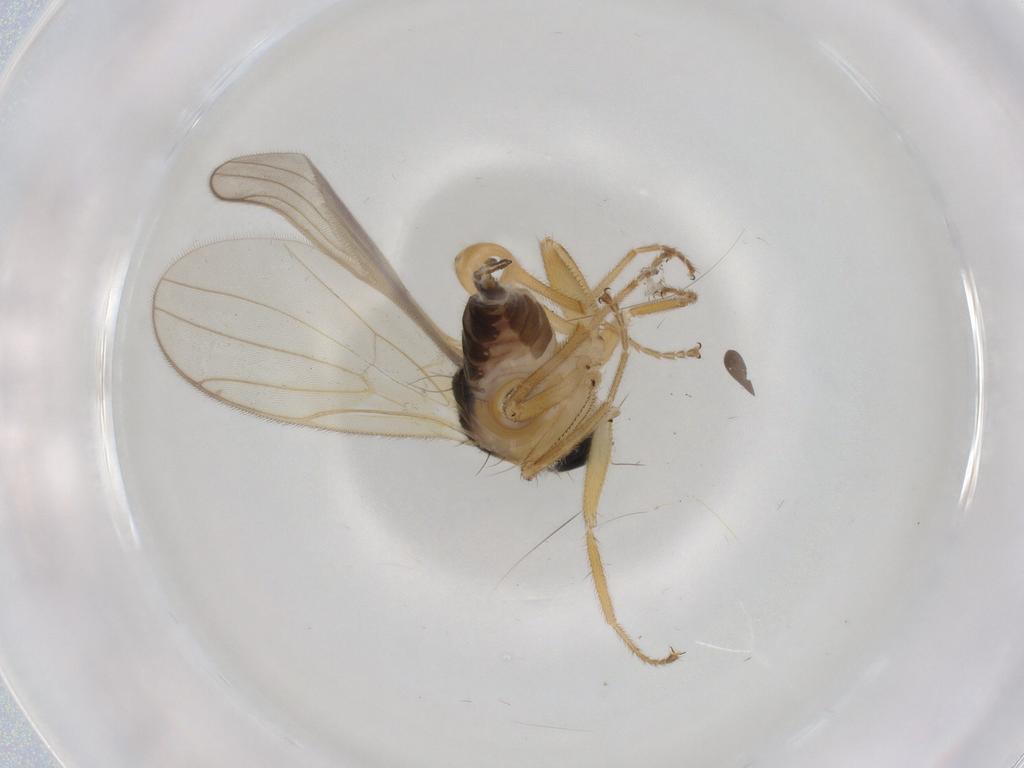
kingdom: Animalia
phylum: Arthropoda
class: Insecta
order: Diptera
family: Hybotidae
